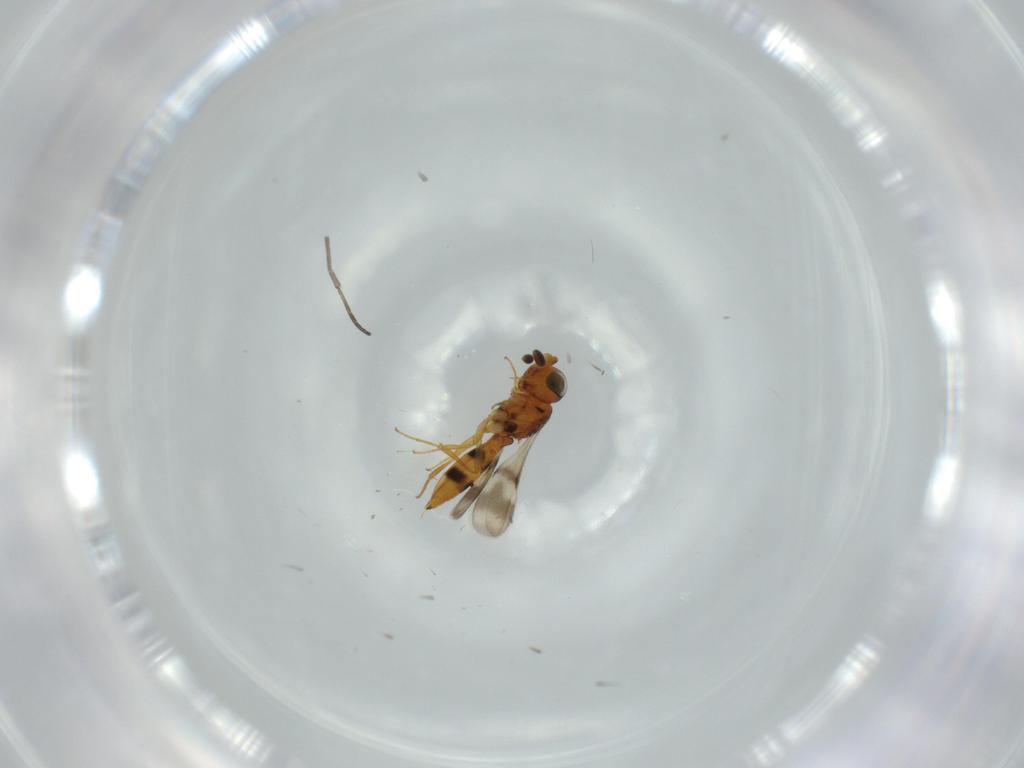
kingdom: Animalia
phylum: Arthropoda
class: Insecta
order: Hymenoptera
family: Scelionidae
